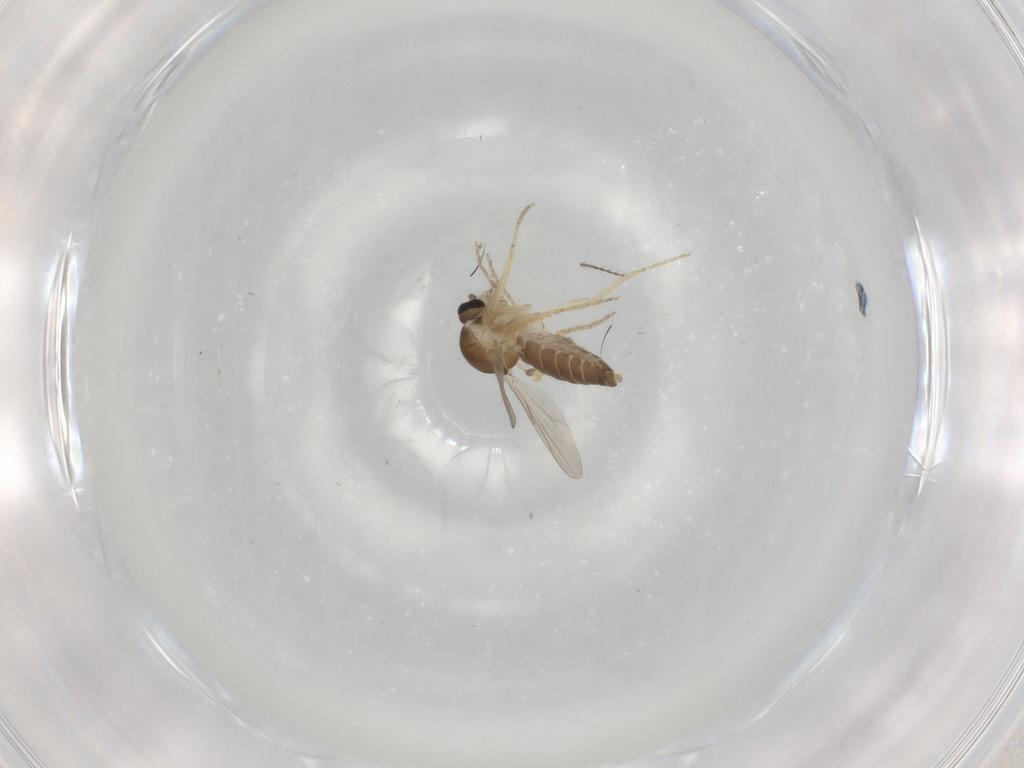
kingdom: Animalia
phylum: Arthropoda
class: Insecta
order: Diptera
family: Ceratopogonidae
